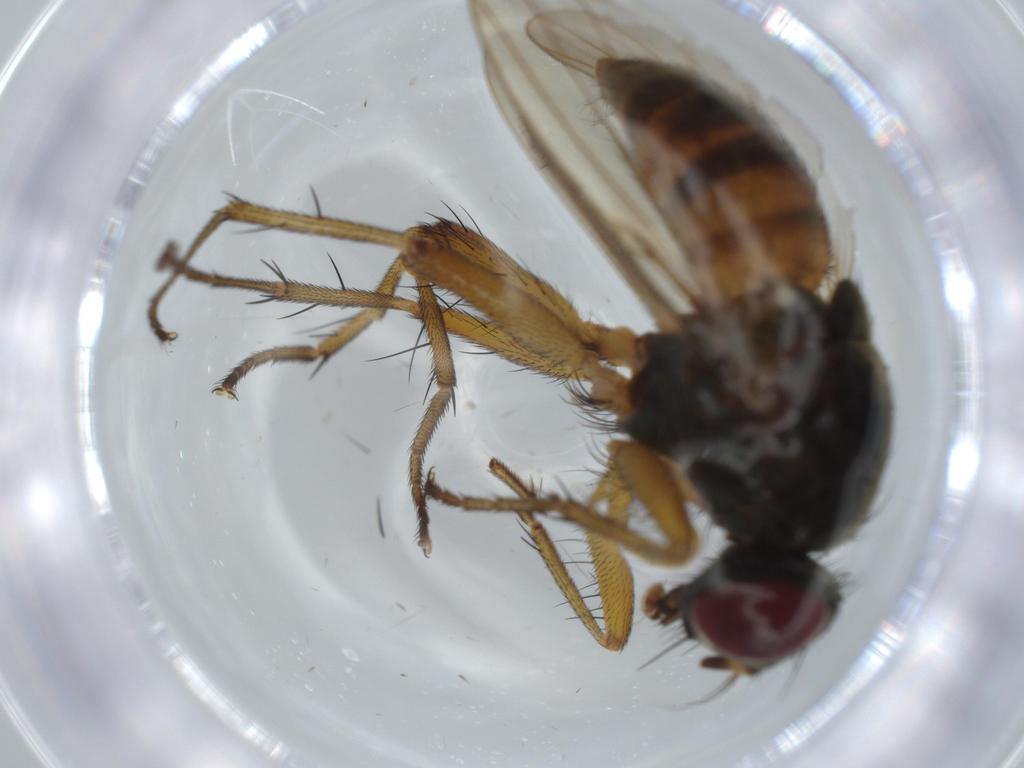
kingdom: Animalia
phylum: Arthropoda
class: Insecta
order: Diptera
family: Muscidae
